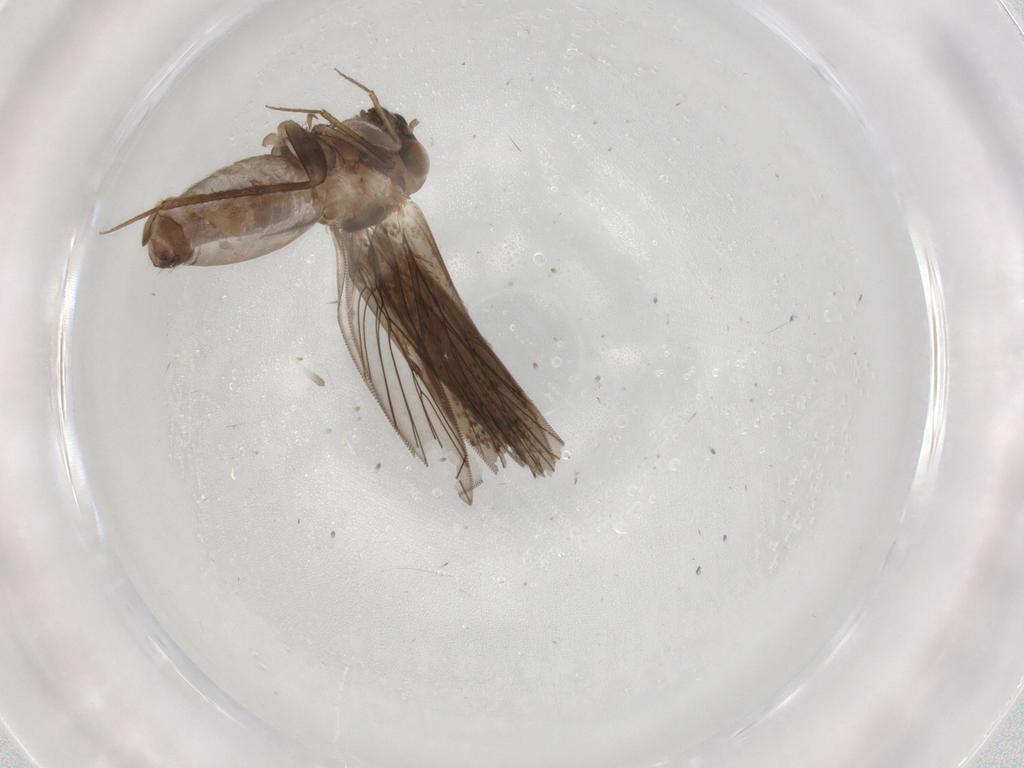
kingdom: Animalia
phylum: Arthropoda
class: Insecta
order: Psocodea
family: Lepidopsocidae
